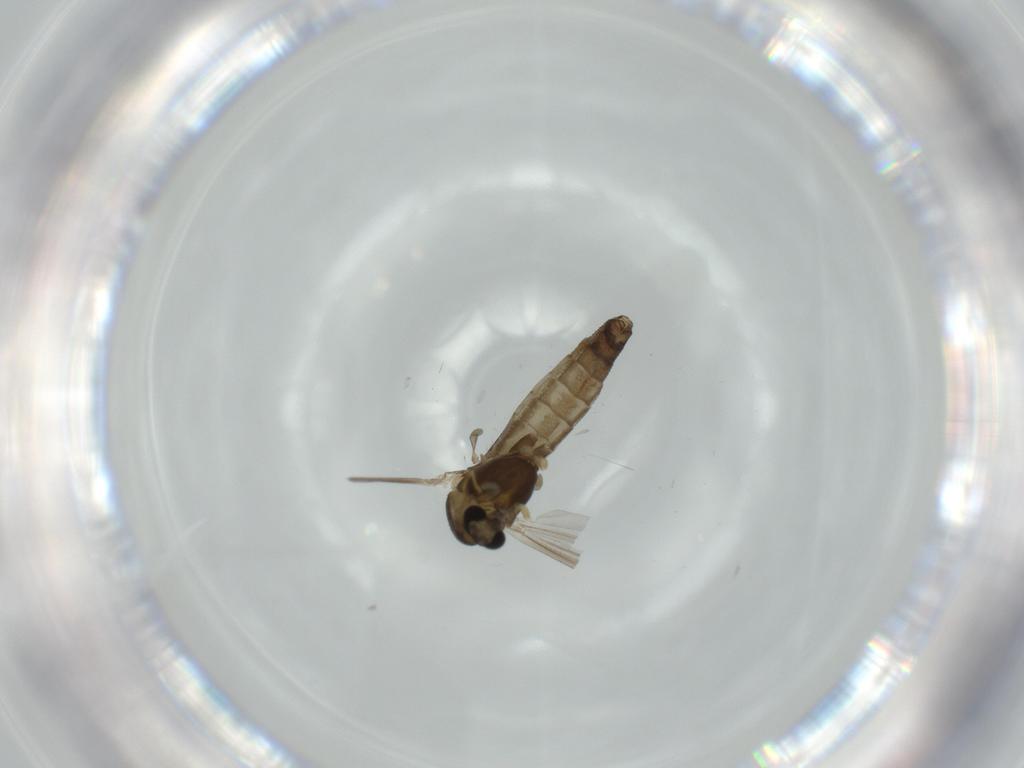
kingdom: Animalia
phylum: Arthropoda
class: Insecta
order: Diptera
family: Chironomidae
